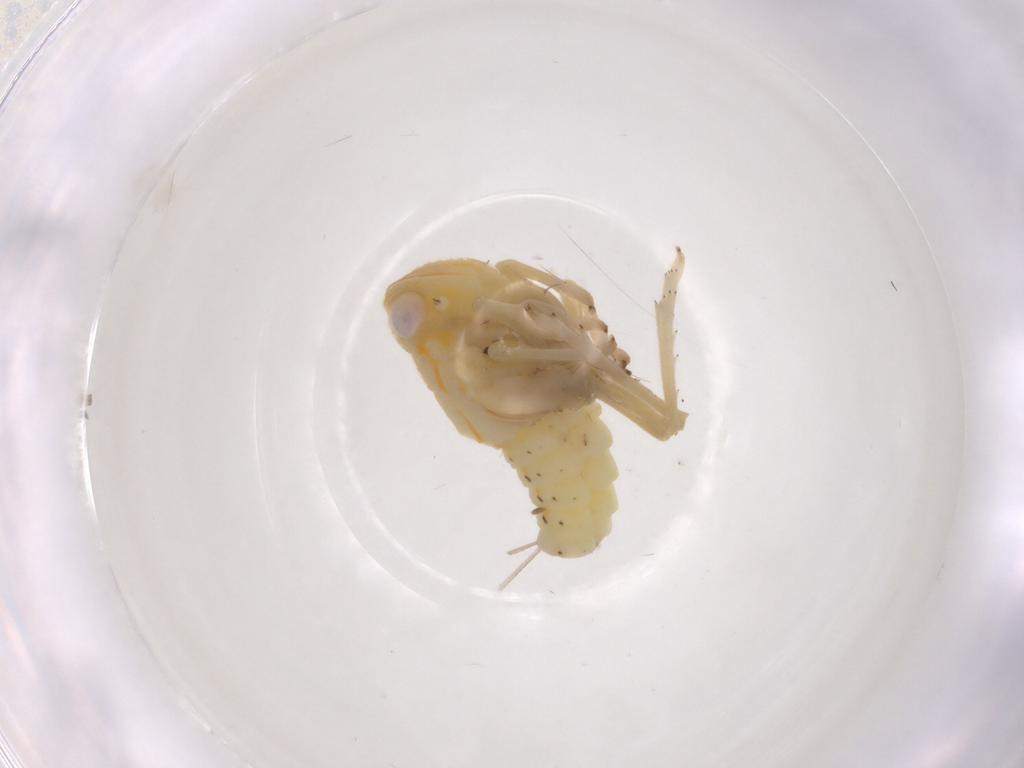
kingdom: Animalia
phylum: Arthropoda
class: Insecta
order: Hemiptera
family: Tropiduchidae
